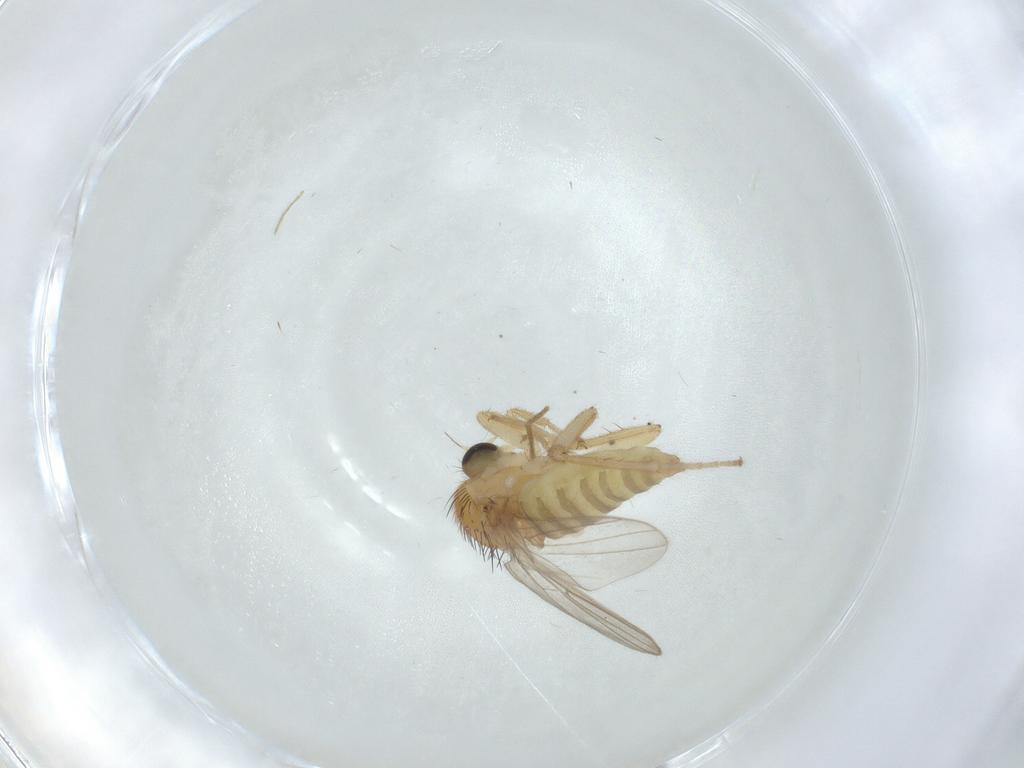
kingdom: Animalia
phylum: Arthropoda
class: Insecta
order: Diptera
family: Hybotidae
